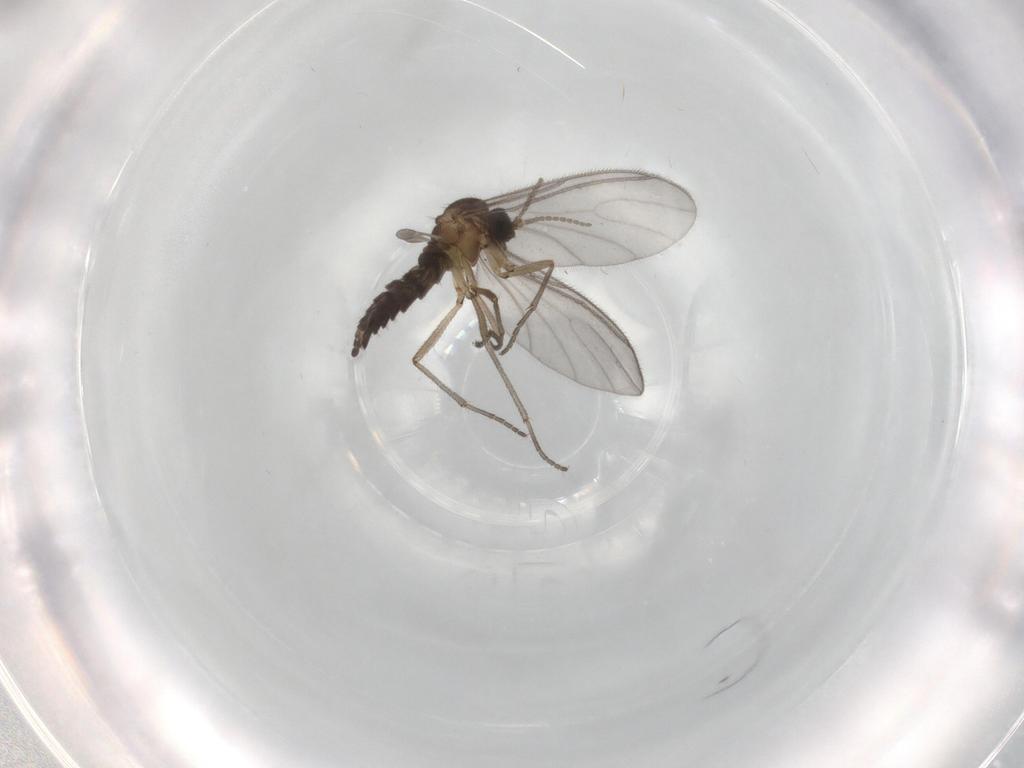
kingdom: Animalia
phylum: Arthropoda
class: Insecta
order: Diptera
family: Sciaridae
